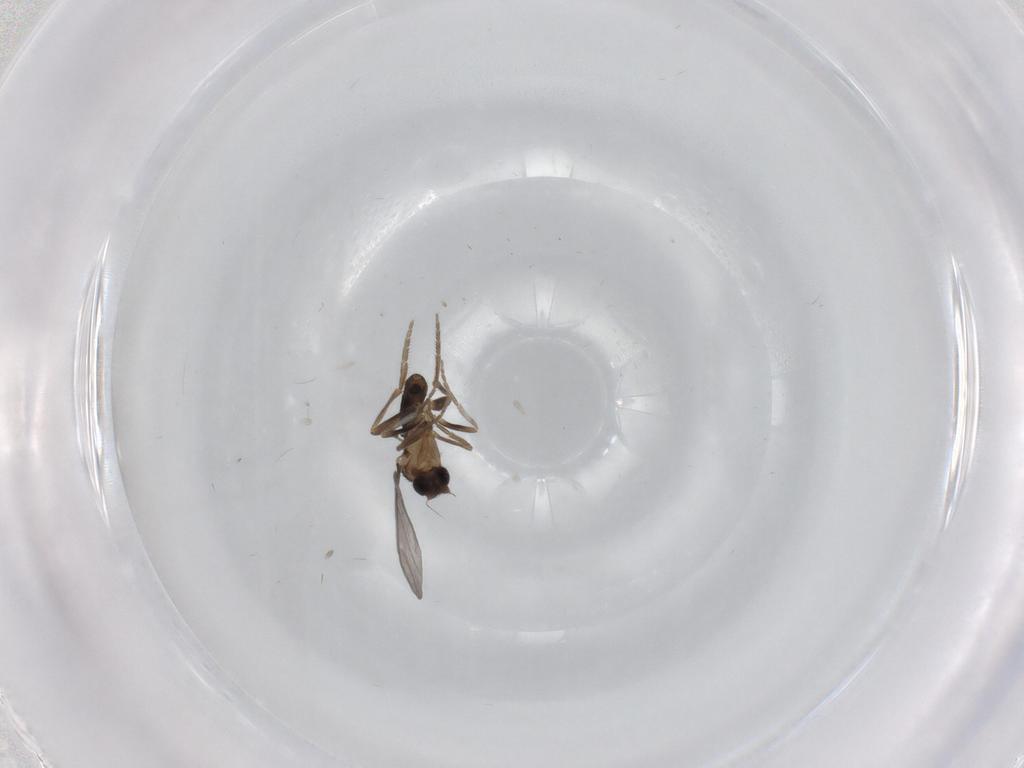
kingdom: Animalia
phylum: Arthropoda
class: Insecta
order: Diptera
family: Phoridae
